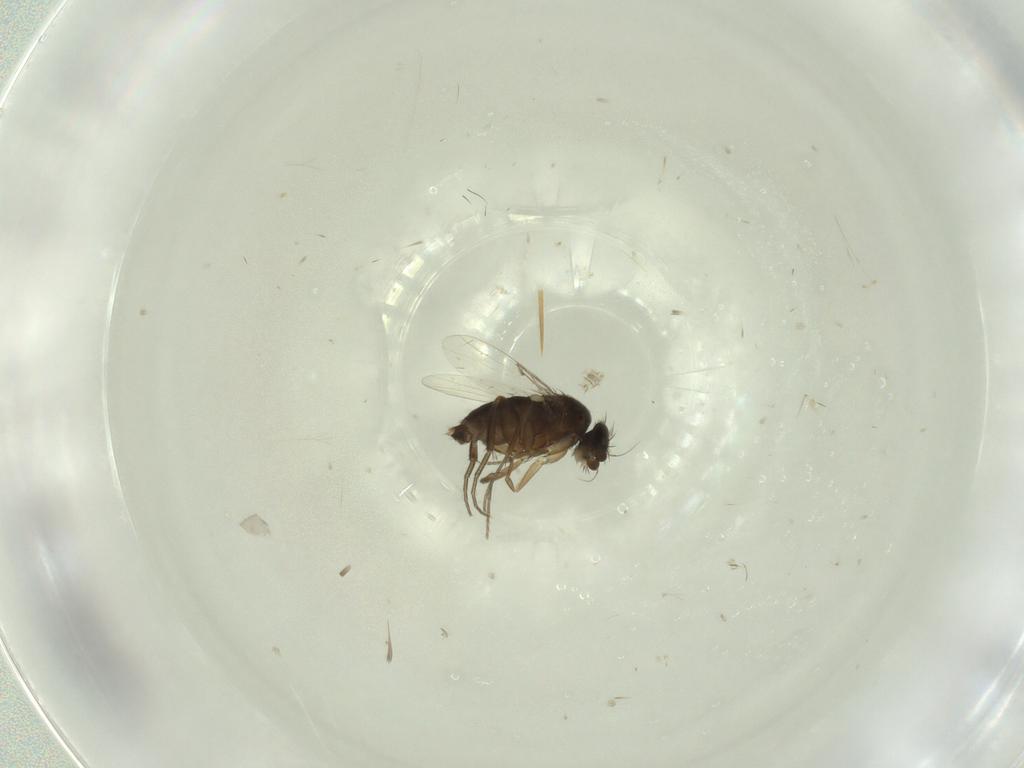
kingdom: Animalia
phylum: Arthropoda
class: Insecta
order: Diptera
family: Phoridae
